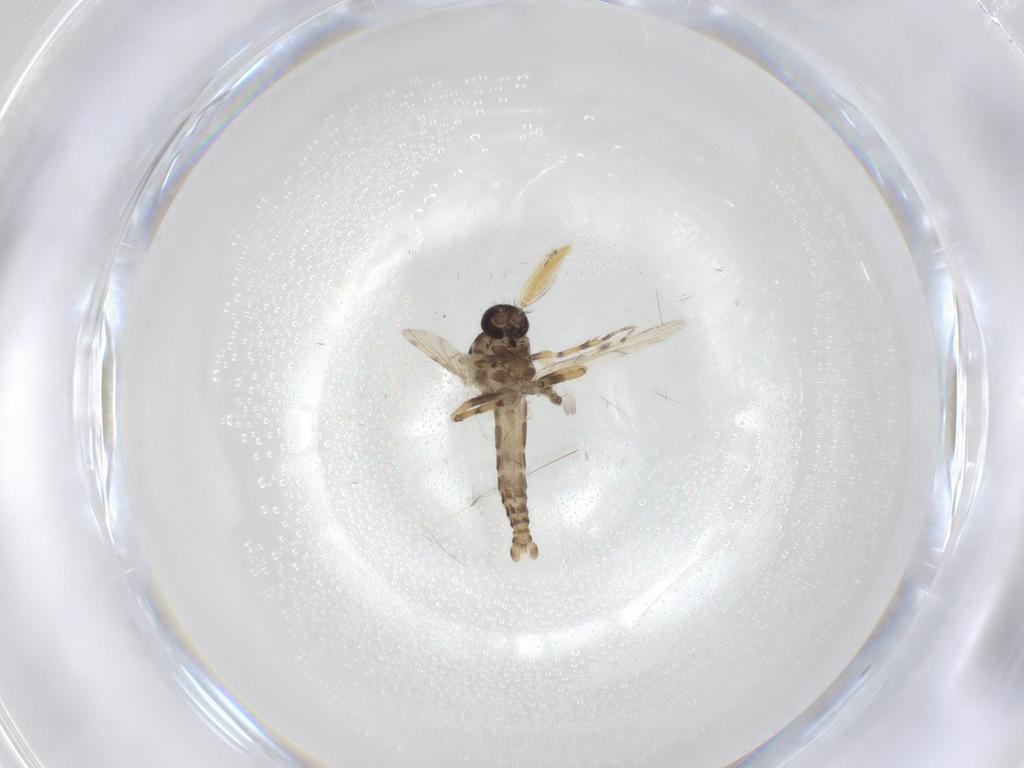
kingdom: Animalia
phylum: Arthropoda
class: Insecta
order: Diptera
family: Ceratopogonidae
